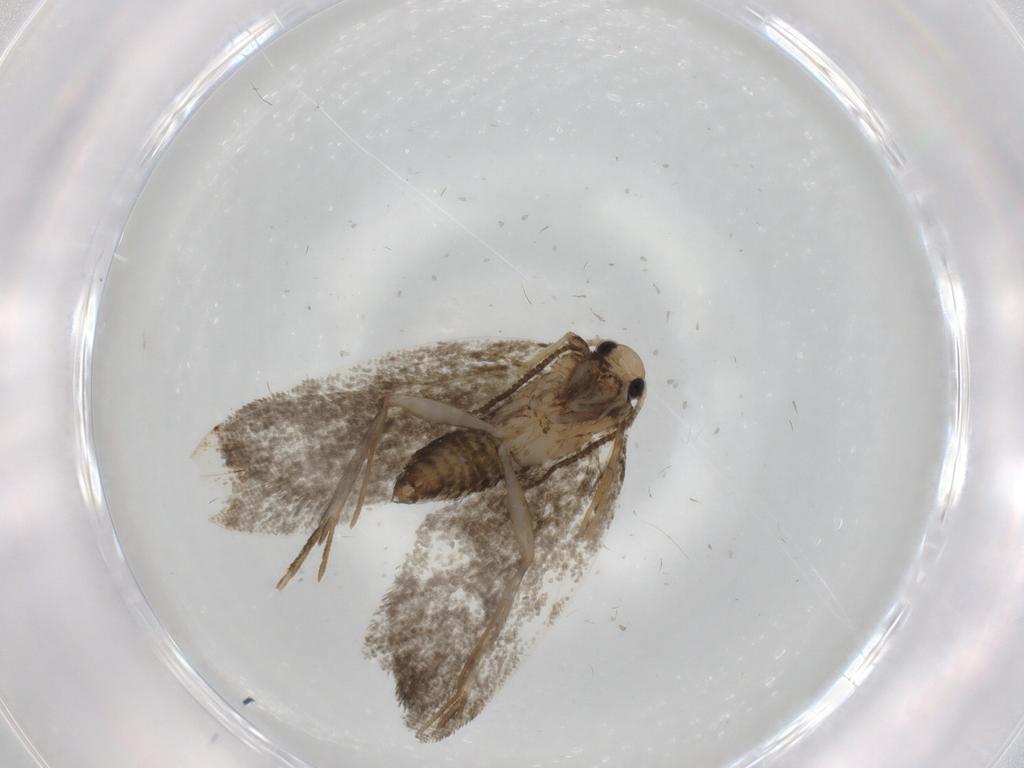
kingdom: Animalia
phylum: Arthropoda
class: Insecta
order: Lepidoptera
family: Psychidae
